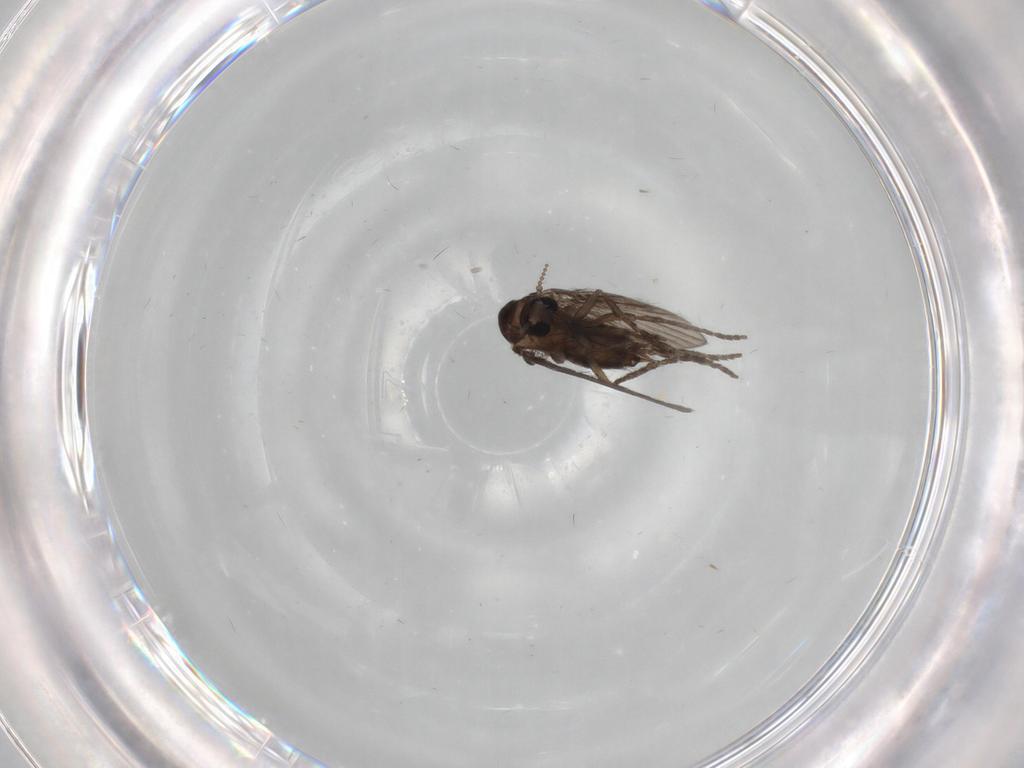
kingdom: Animalia
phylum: Arthropoda
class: Insecta
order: Diptera
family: Psychodidae
